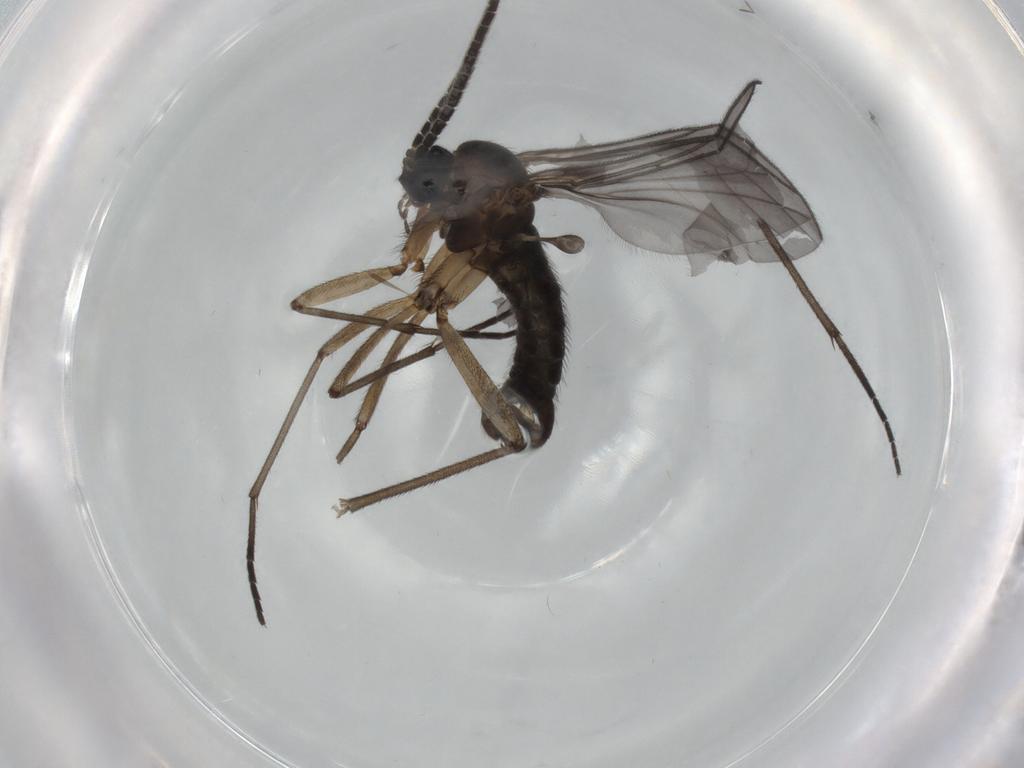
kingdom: Animalia
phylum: Arthropoda
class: Insecta
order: Diptera
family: Sciaridae
